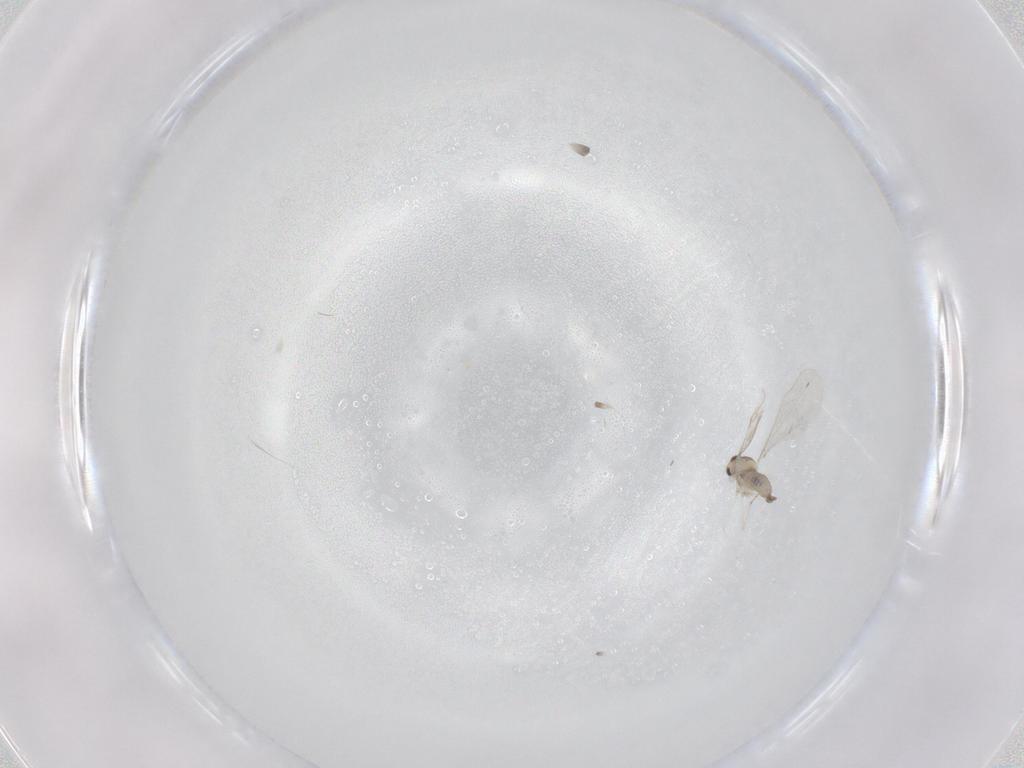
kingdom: Animalia
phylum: Arthropoda
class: Insecta
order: Diptera
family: Cecidomyiidae
